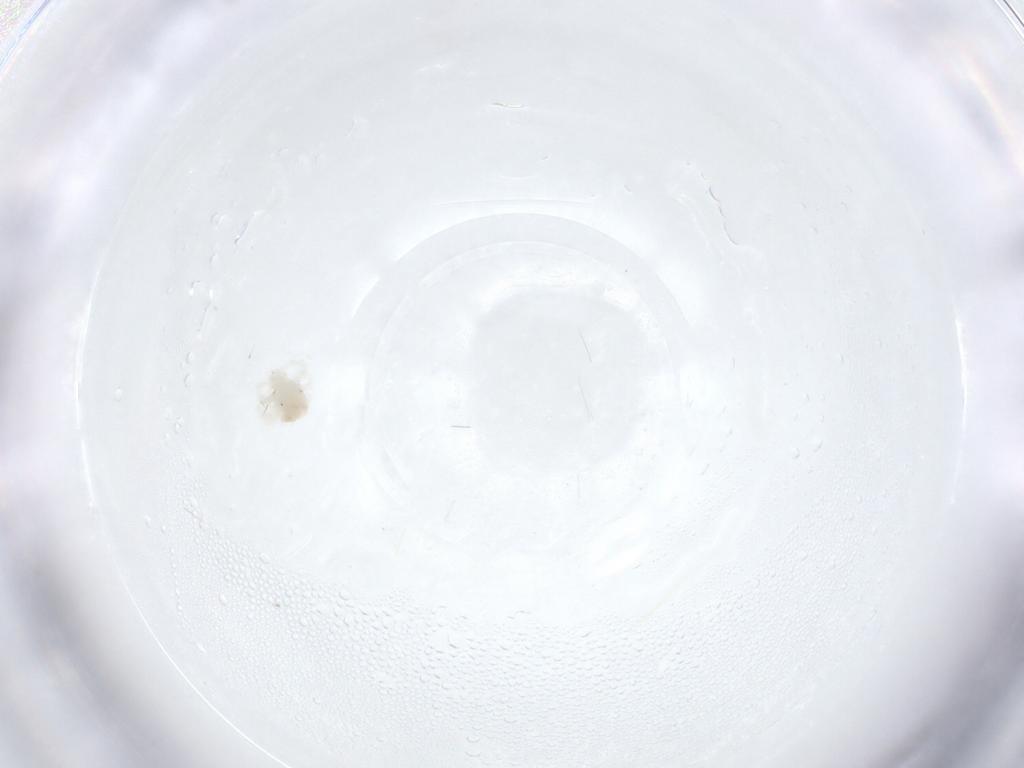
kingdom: Animalia
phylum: Arthropoda
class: Arachnida
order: Trombidiformes
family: Anystidae
